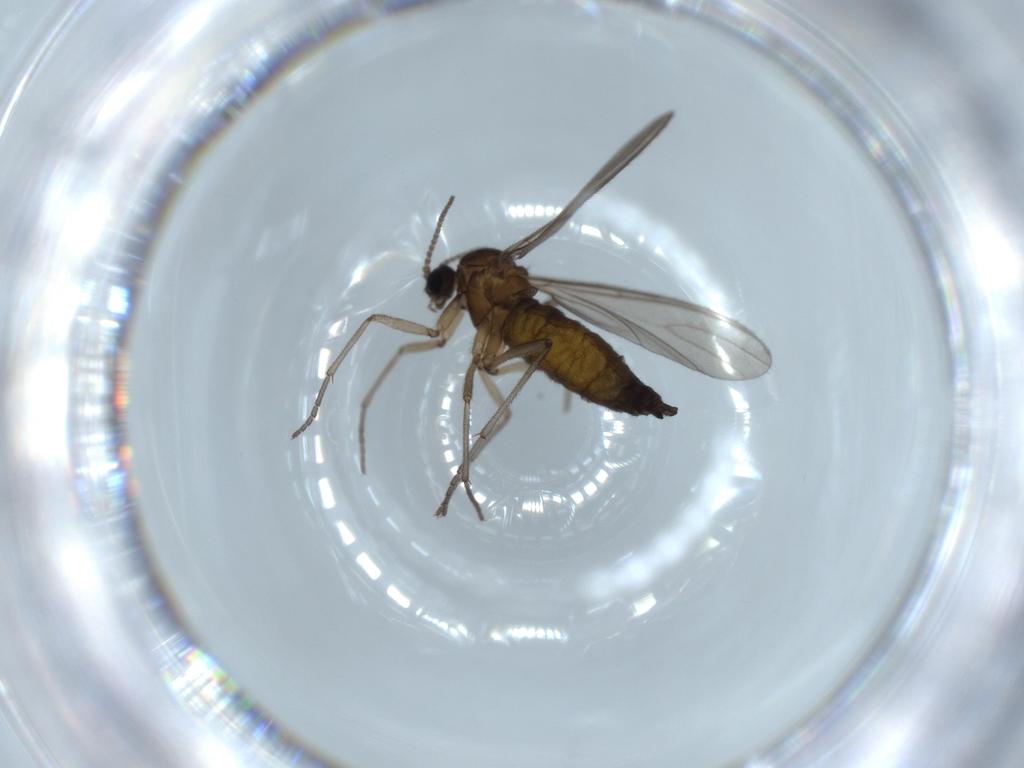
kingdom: Animalia
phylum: Arthropoda
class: Insecta
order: Diptera
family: Sciaridae
